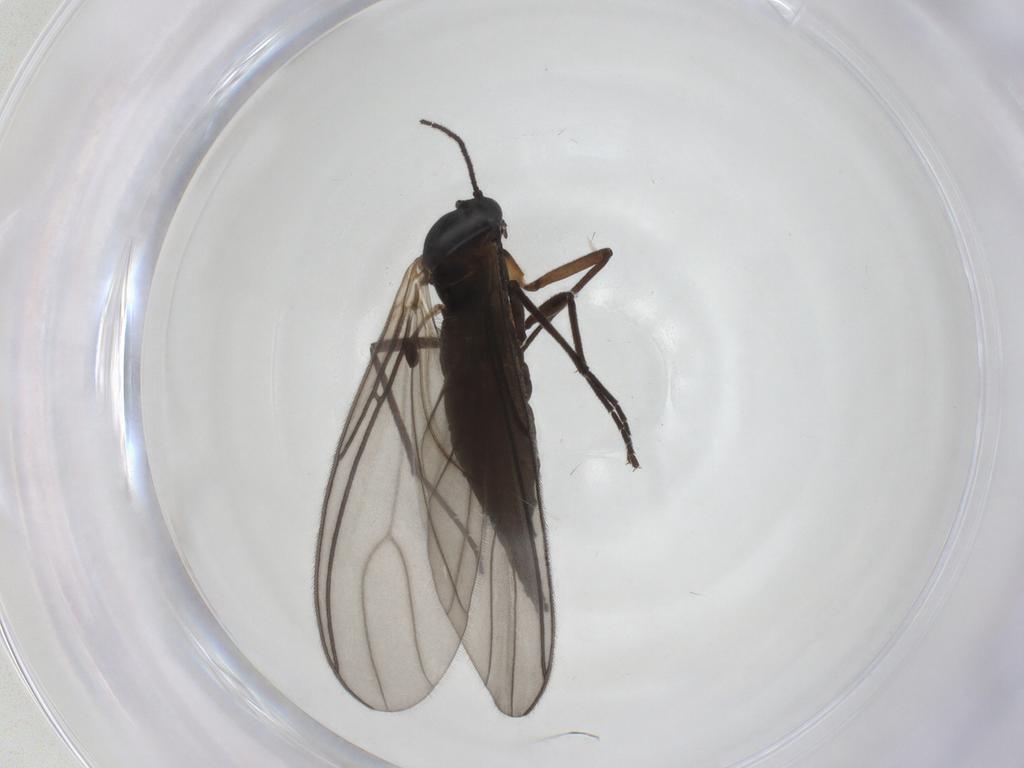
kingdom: Animalia
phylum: Arthropoda
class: Insecta
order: Diptera
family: Sciaridae
